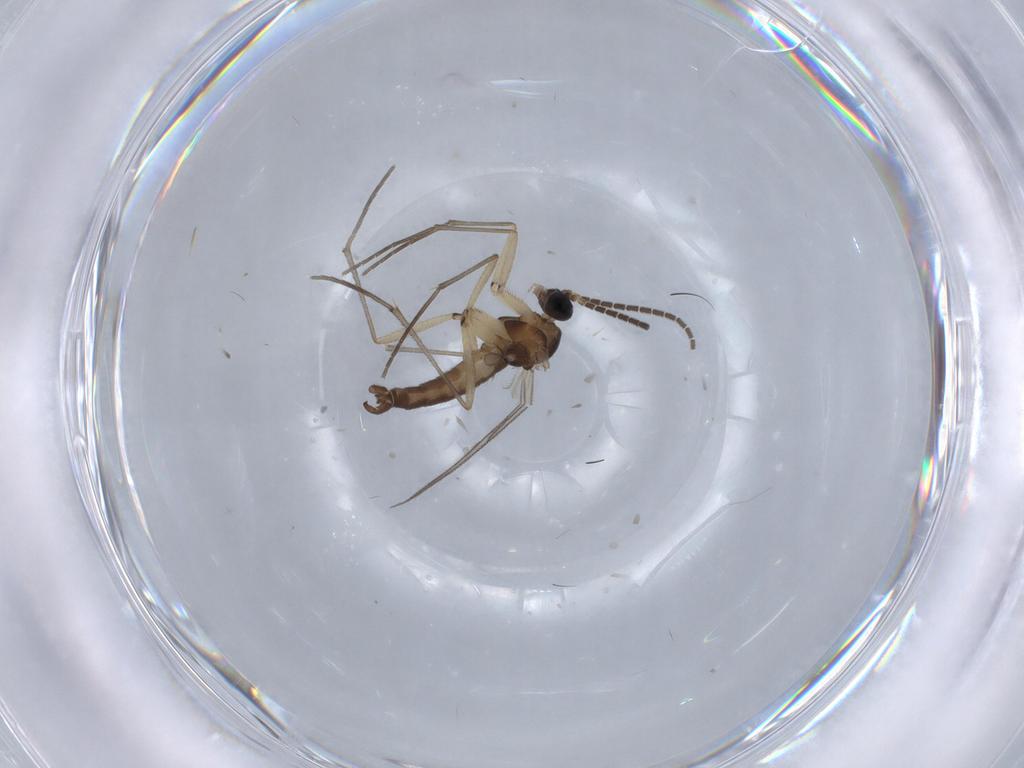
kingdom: Animalia
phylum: Arthropoda
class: Insecta
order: Diptera
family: Sciaridae
